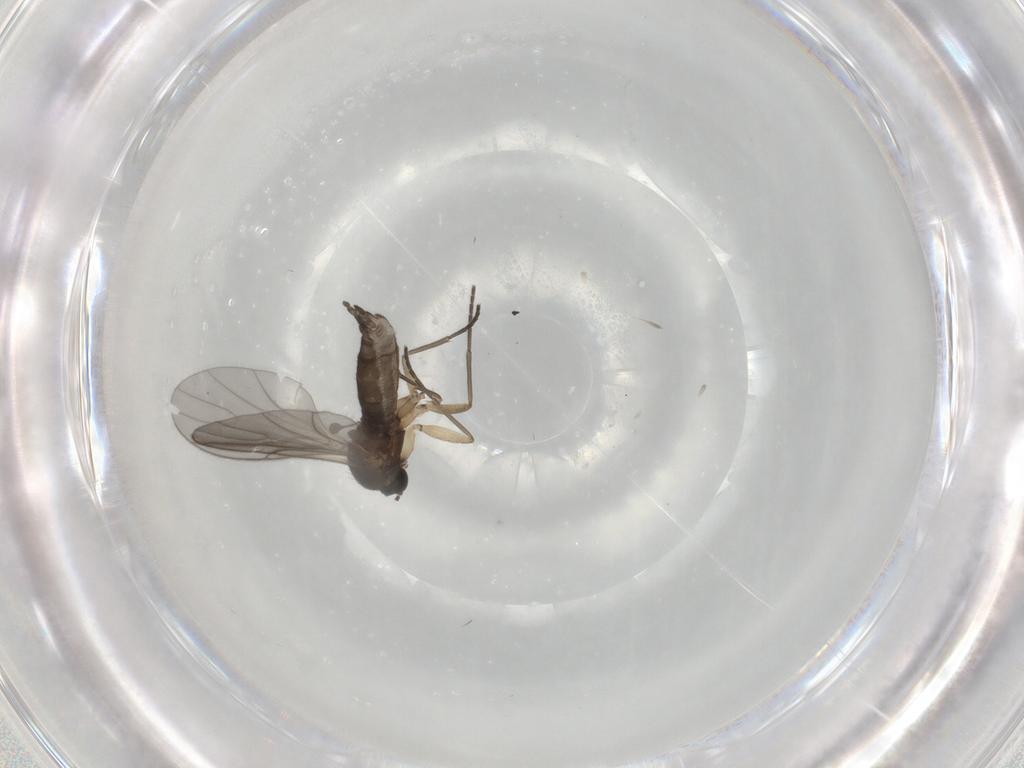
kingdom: Animalia
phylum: Arthropoda
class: Insecta
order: Diptera
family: Sciaridae
